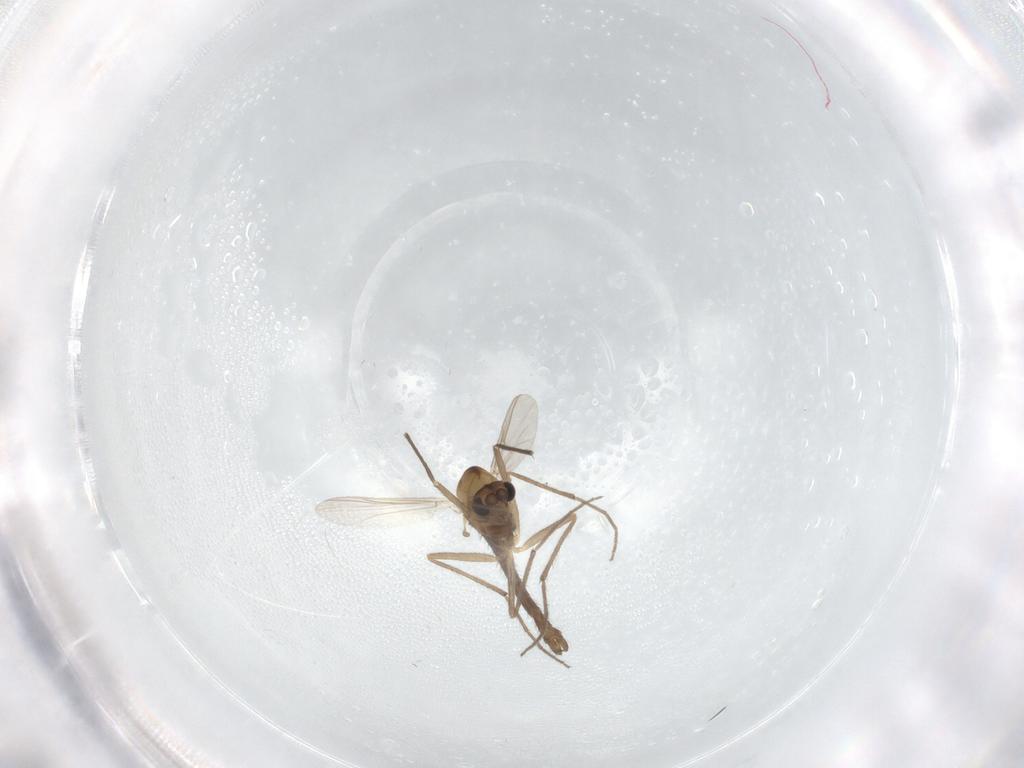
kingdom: Animalia
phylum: Arthropoda
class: Insecta
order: Diptera
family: Chironomidae
